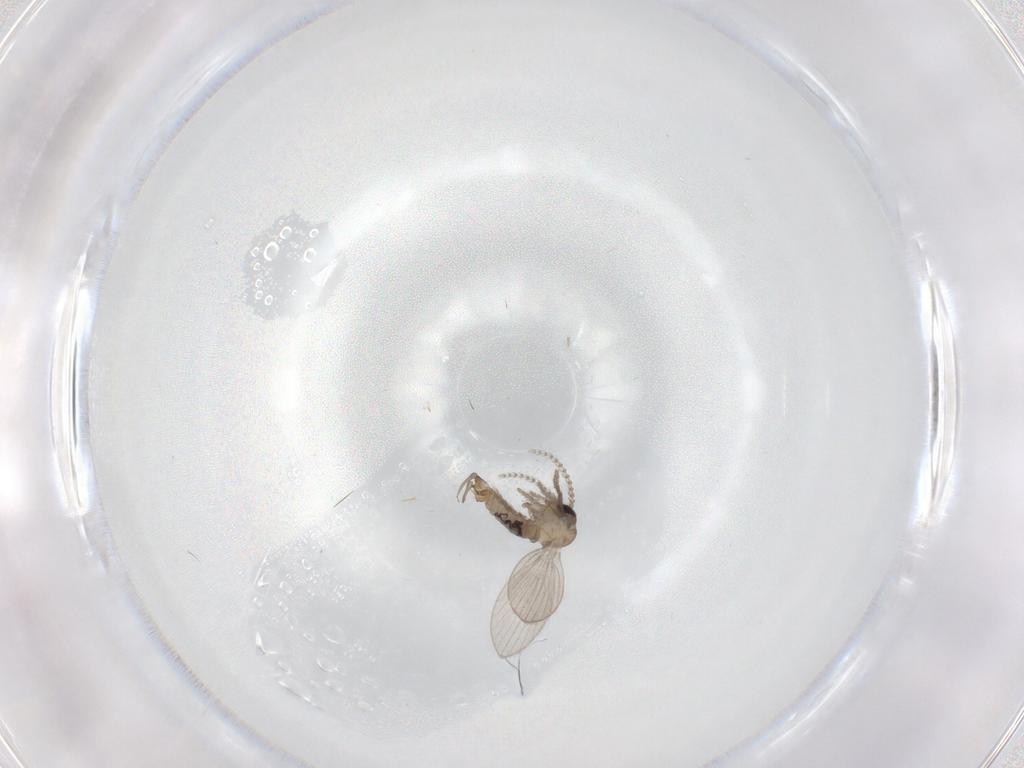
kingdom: Animalia
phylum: Arthropoda
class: Insecta
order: Diptera
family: Psychodidae
